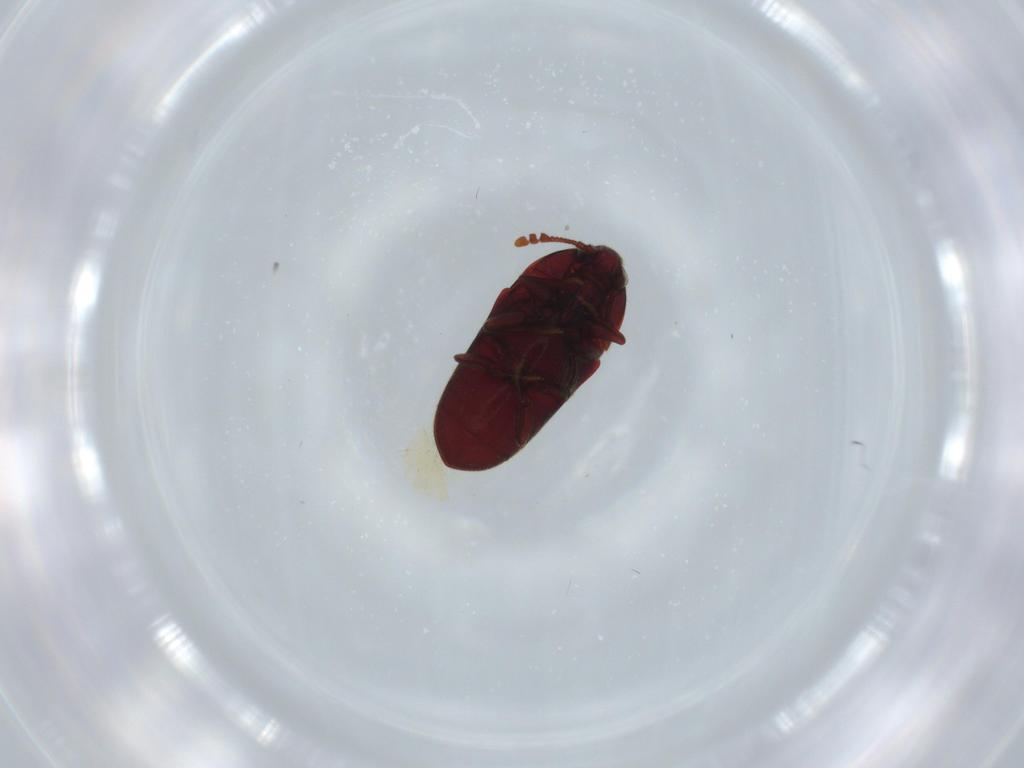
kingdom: Animalia
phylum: Arthropoda
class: Insecta
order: Coleoptera
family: Throscidae
